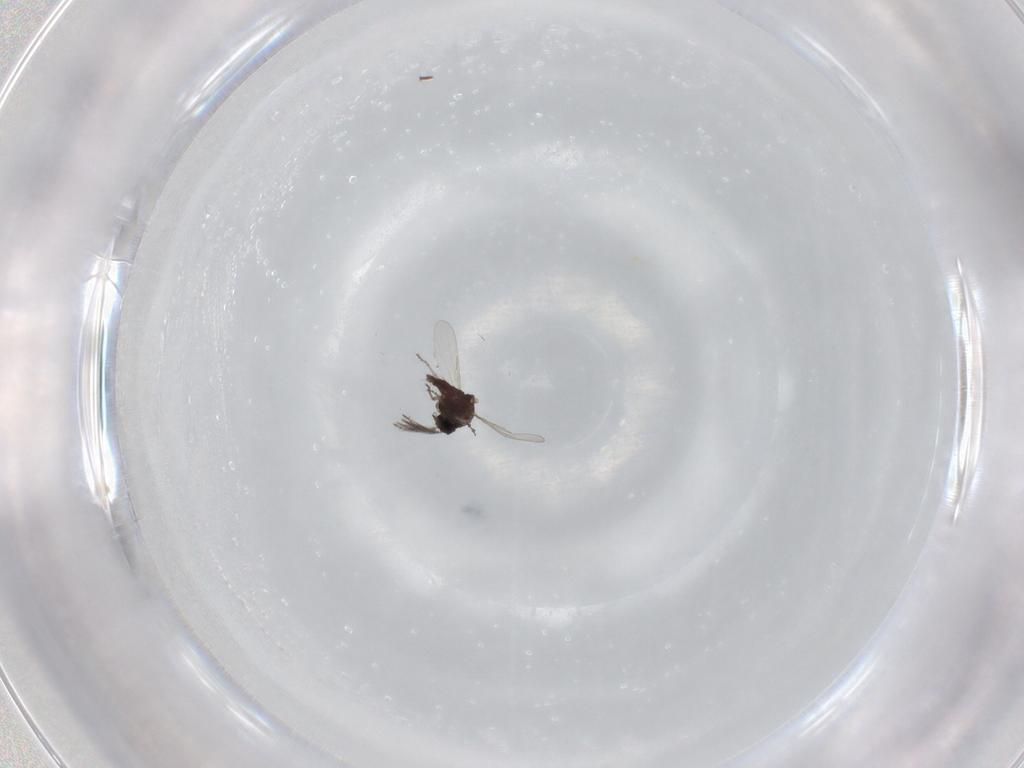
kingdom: Animalia
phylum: Arthropoda
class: Insecta
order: Diptera
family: Ceratopogonidae
